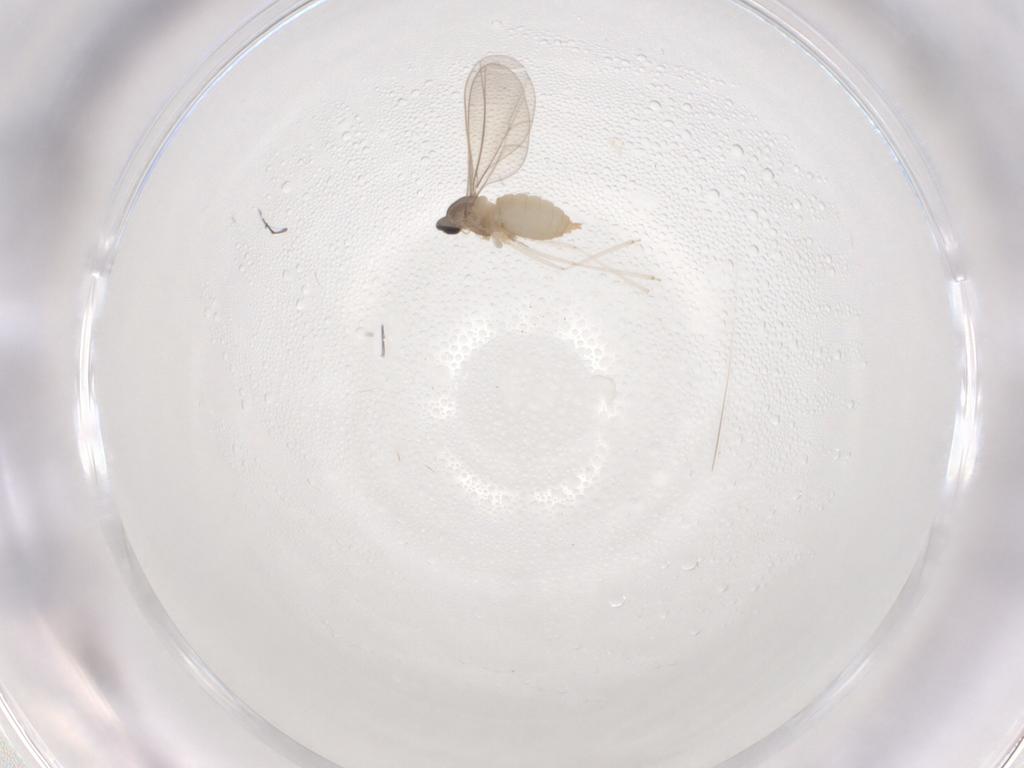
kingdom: Animalia
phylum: Arthropoda
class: Insecta
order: Diptera
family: Cecidomyiidae
